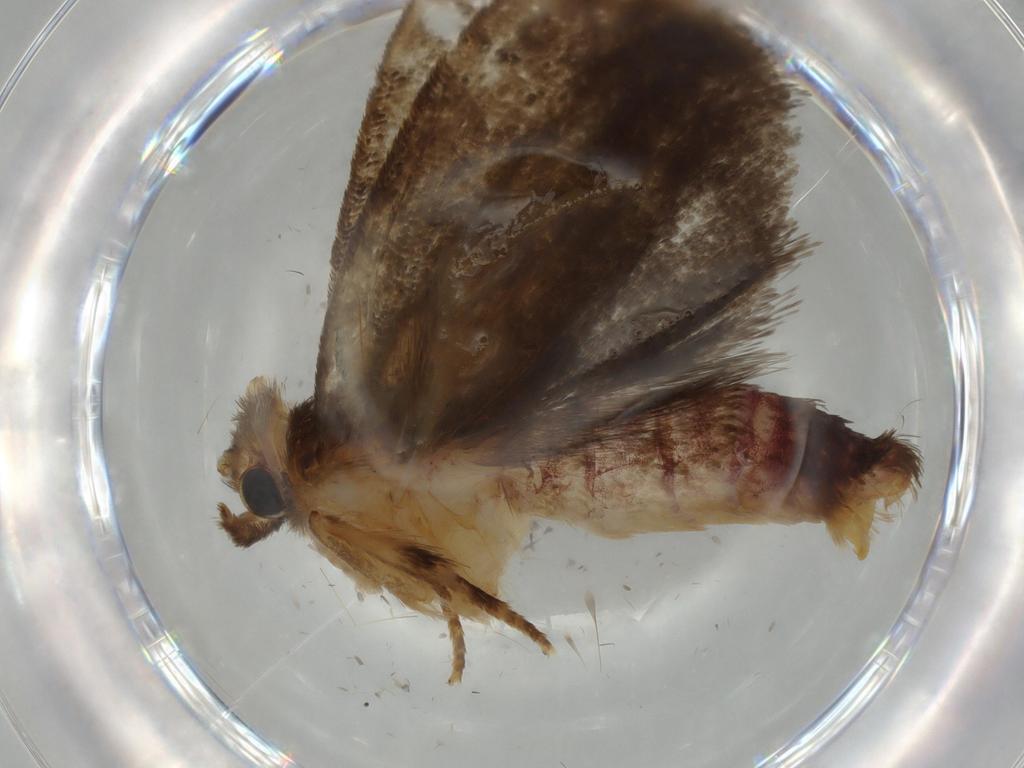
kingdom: Animalia
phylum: Arthropoda
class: Insecta
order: Lepidoptera
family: Tineidae
